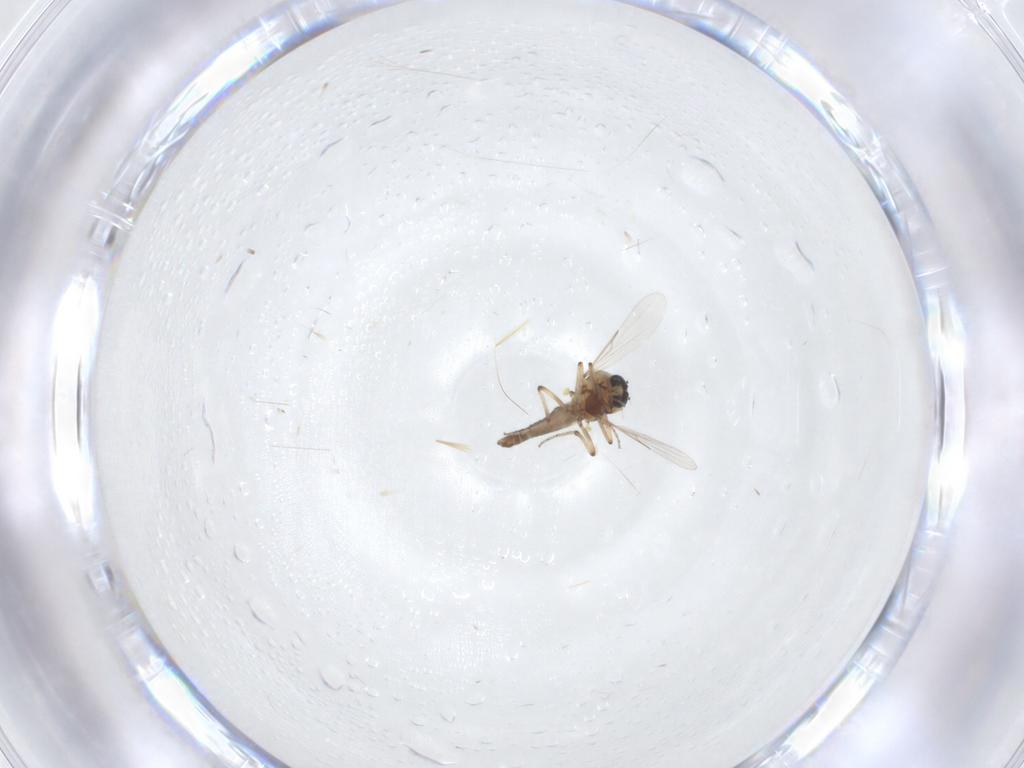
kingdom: Animalia
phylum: Arthropoda
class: Insecta
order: Diptera
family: Ceratopogonidae
